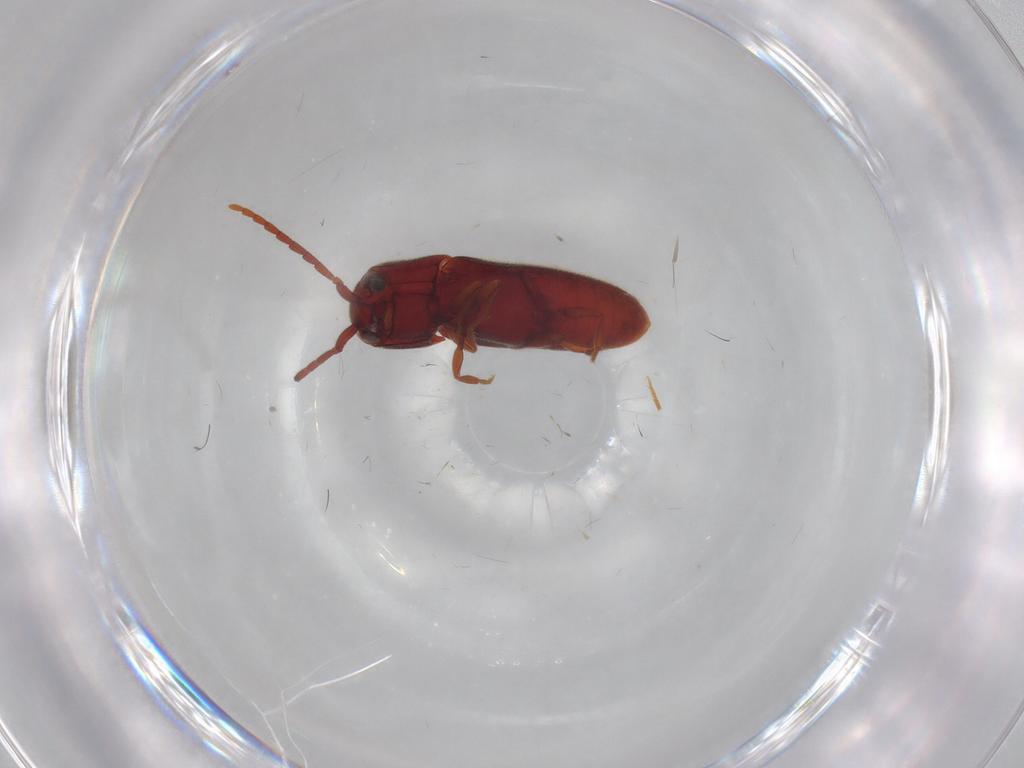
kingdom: Animalia
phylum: Arthropoda
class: Insecta
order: Coleoptera
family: Eucnemidae
